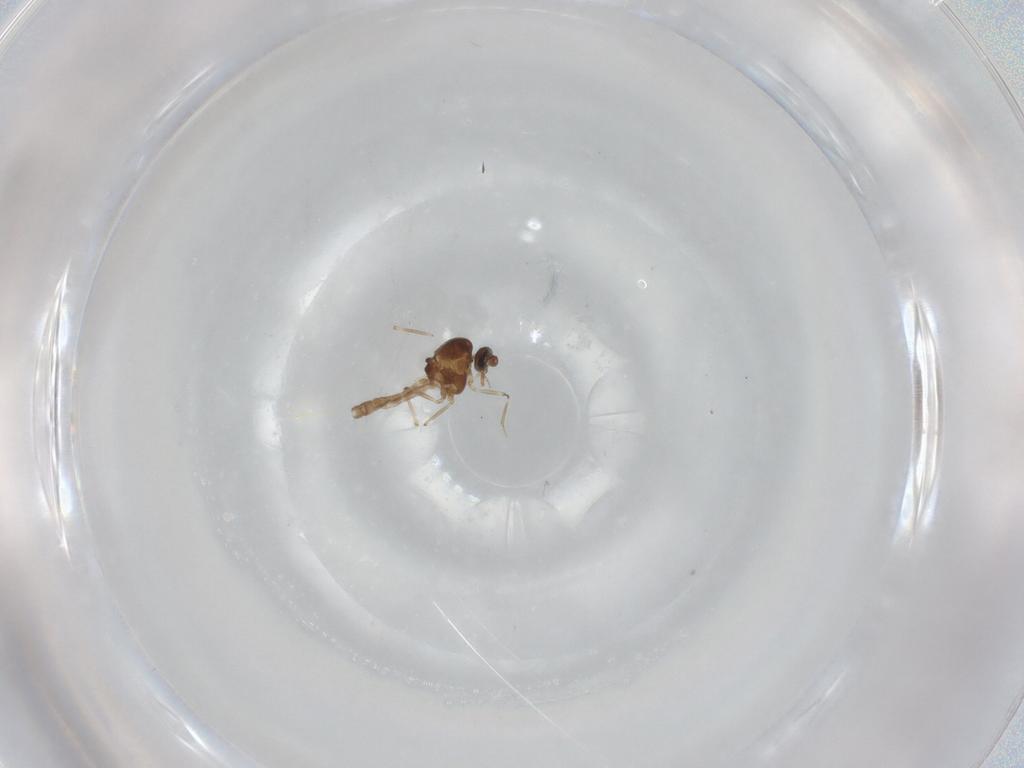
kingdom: Animalia
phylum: Arthropoda
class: Insecta
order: Diptera
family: Ceratopogonidae
